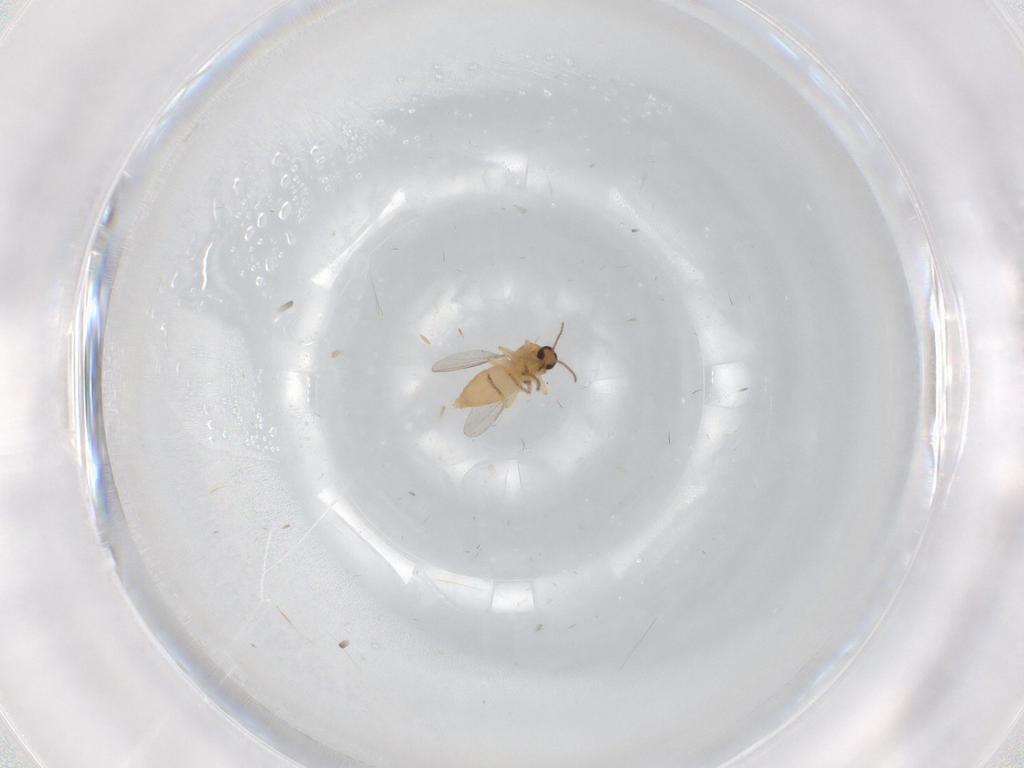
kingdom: Animalia
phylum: Arthropoda
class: Insecta
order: Diptera
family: Ceratopogonidae
